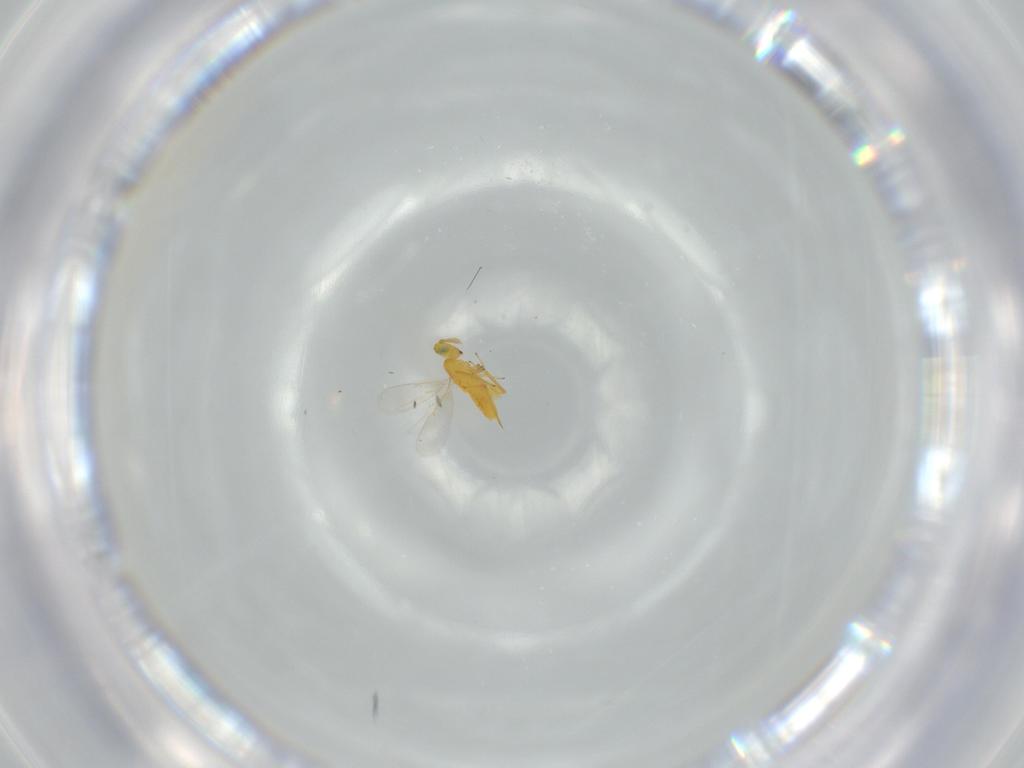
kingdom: Animalia
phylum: Arthropoda
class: Insecta
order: Hymenoptera
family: Aphelinidae
